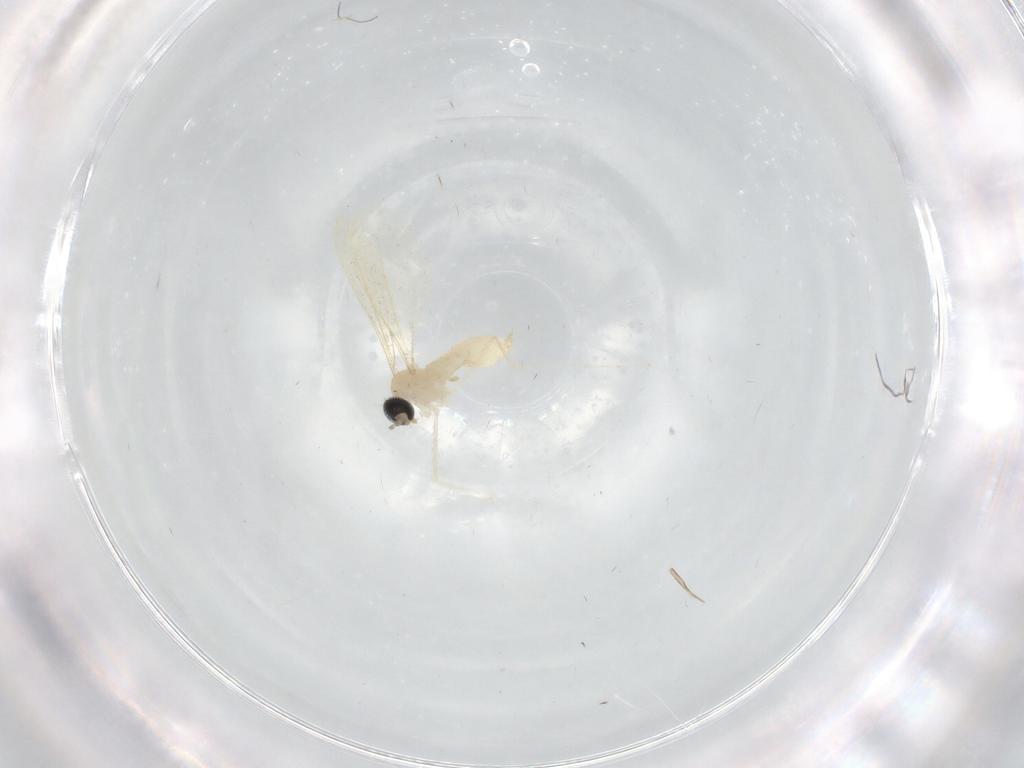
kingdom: Animalia
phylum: Arthropoda
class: Insecta
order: Diptera
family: Cecidomyiidae
